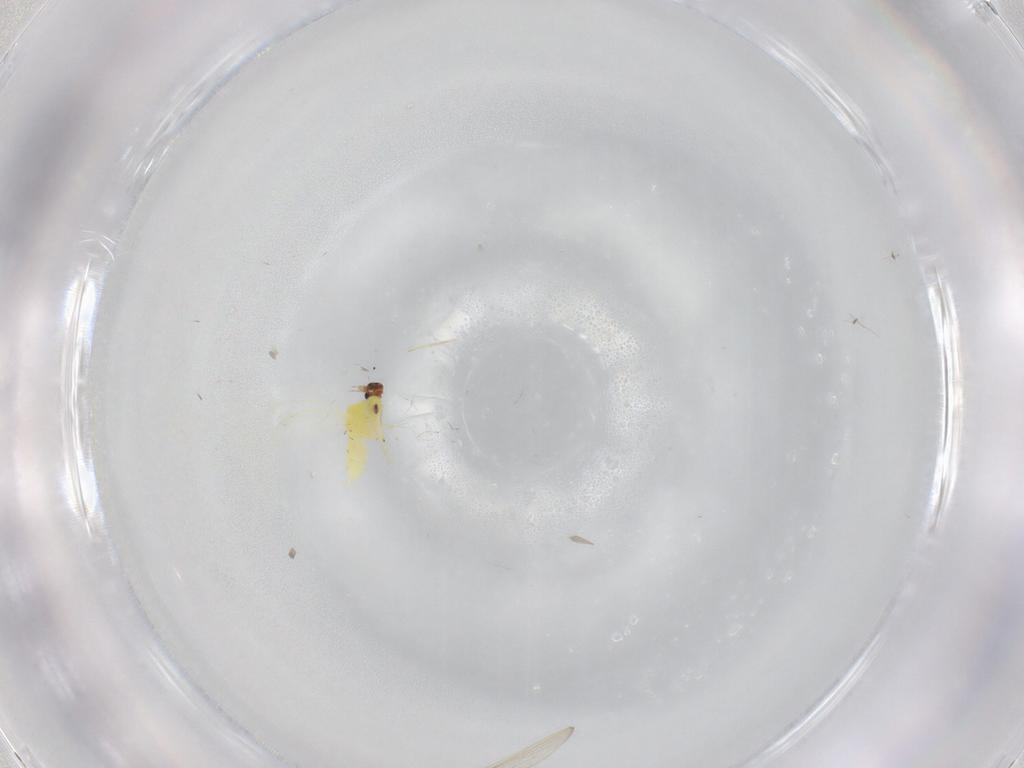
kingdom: Animalia
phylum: Arthropoda
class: Insecta
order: Hemiptera
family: Aleyrodidae
